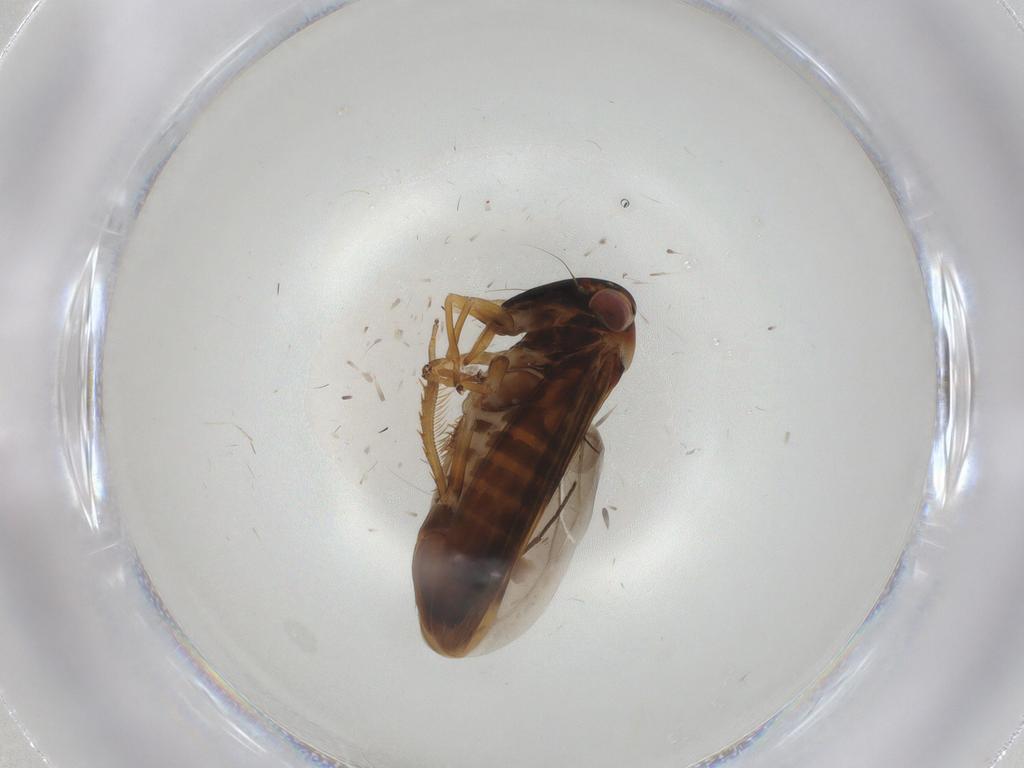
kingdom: Animalia
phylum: Arthropoda
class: Insecta
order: Hemiptera
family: Cicadellidae
